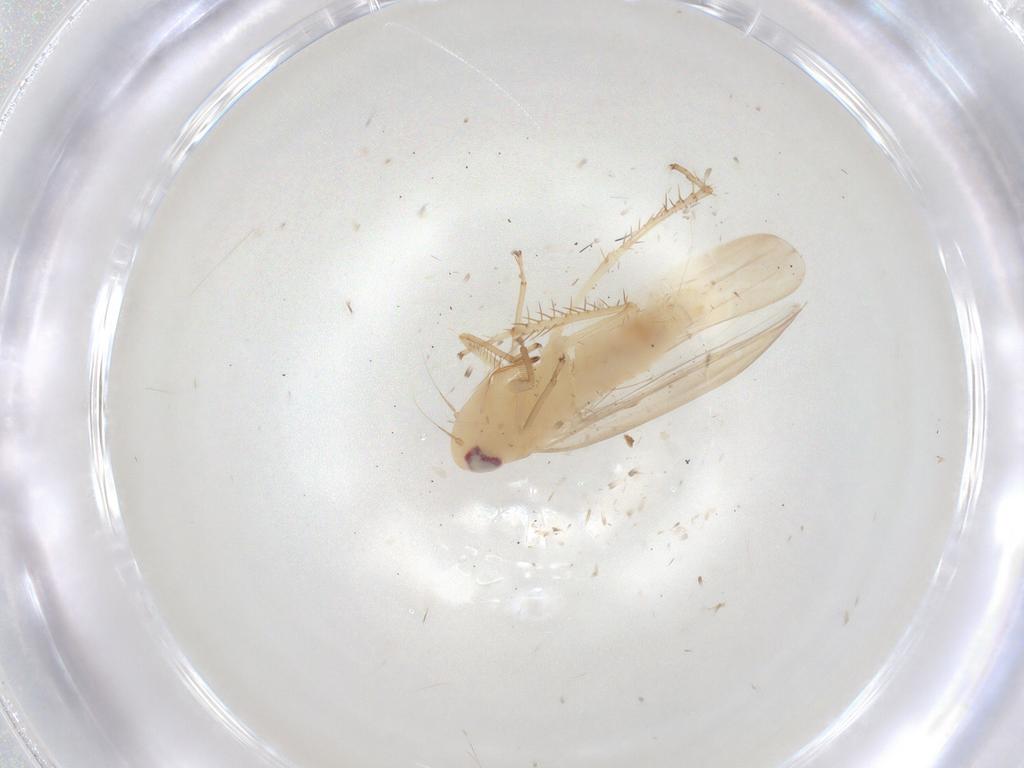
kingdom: Animalia
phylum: Arthropoda
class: Insecta
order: Hemiptera
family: Cicadellidae
